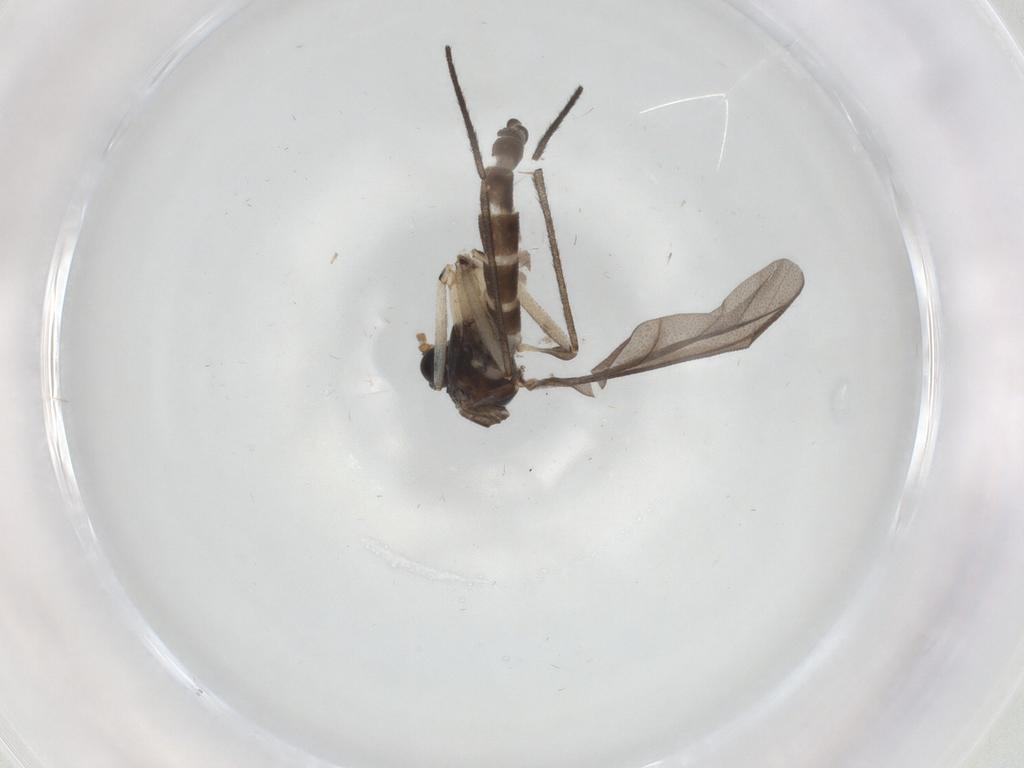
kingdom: Animalia
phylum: Arthropoda
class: Insecta
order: Diptera
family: Sciaridae
